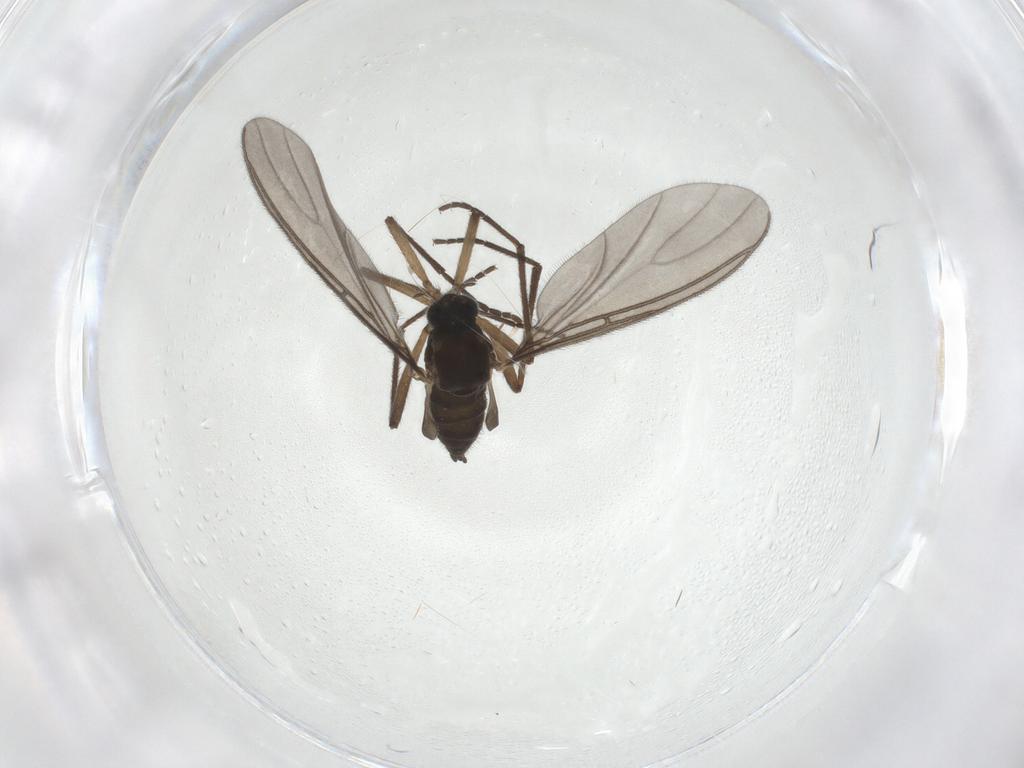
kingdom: Animalia
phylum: Arthropoda
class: Insecta
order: Diptera
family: Sciaridae
